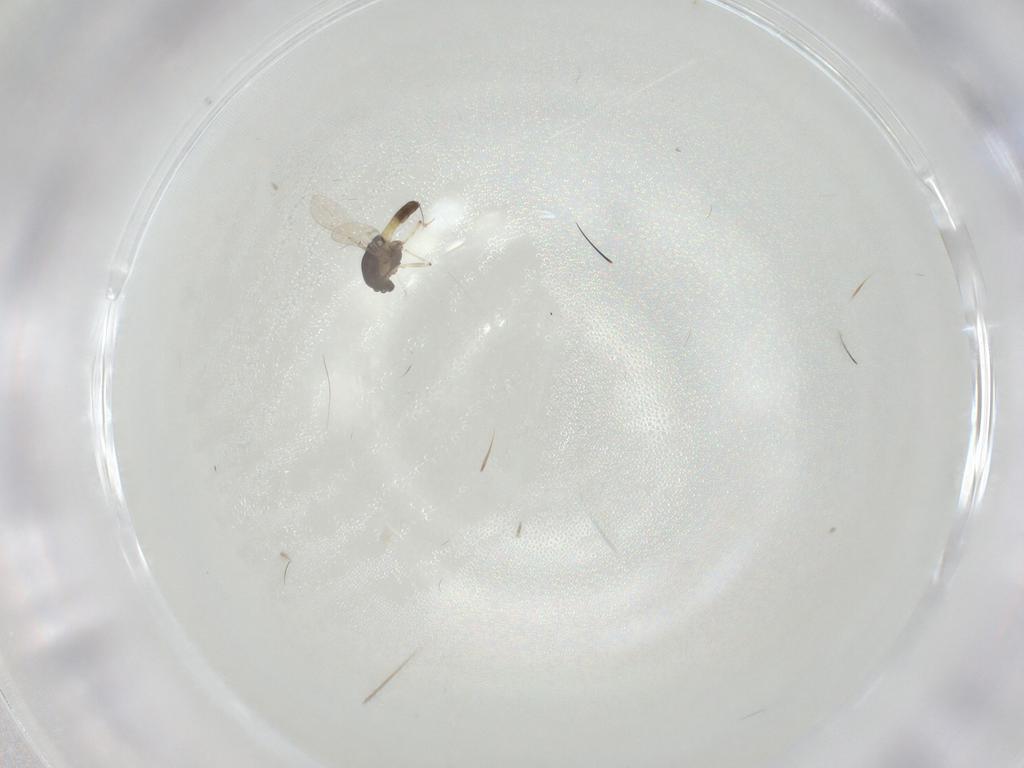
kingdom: Animalia
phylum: Arthropoda
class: Insecta
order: Diptera
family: Chironomidae
